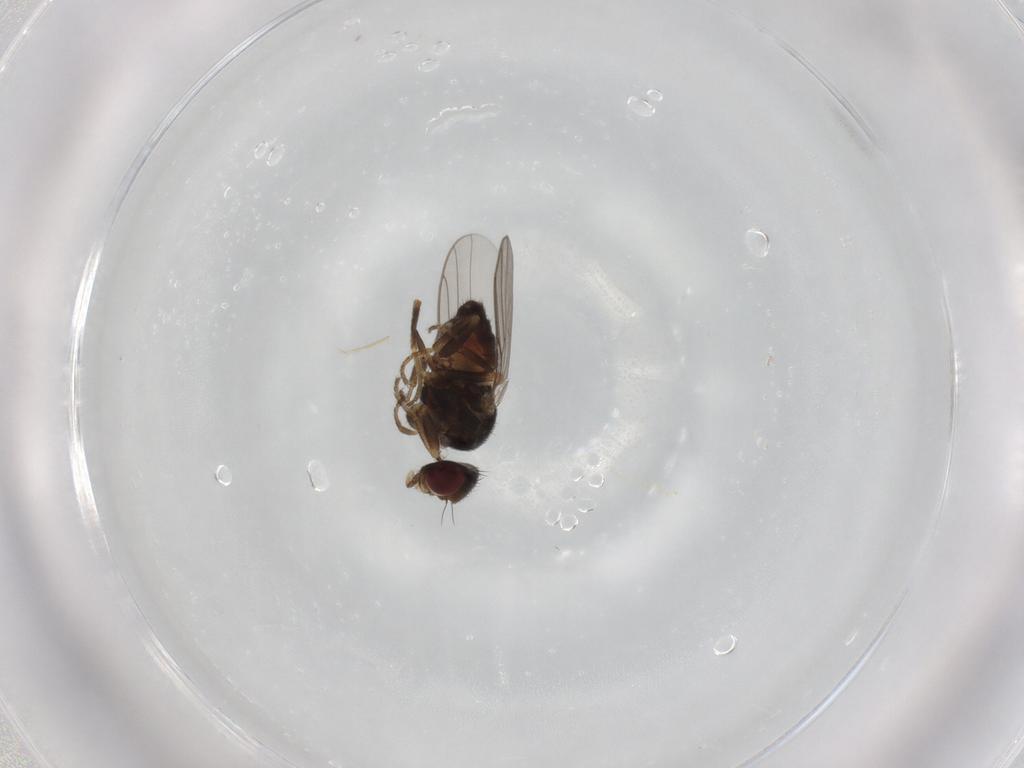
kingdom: Animalia
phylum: Arthropoda
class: Insecta
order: Diptera
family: Chloropidae
